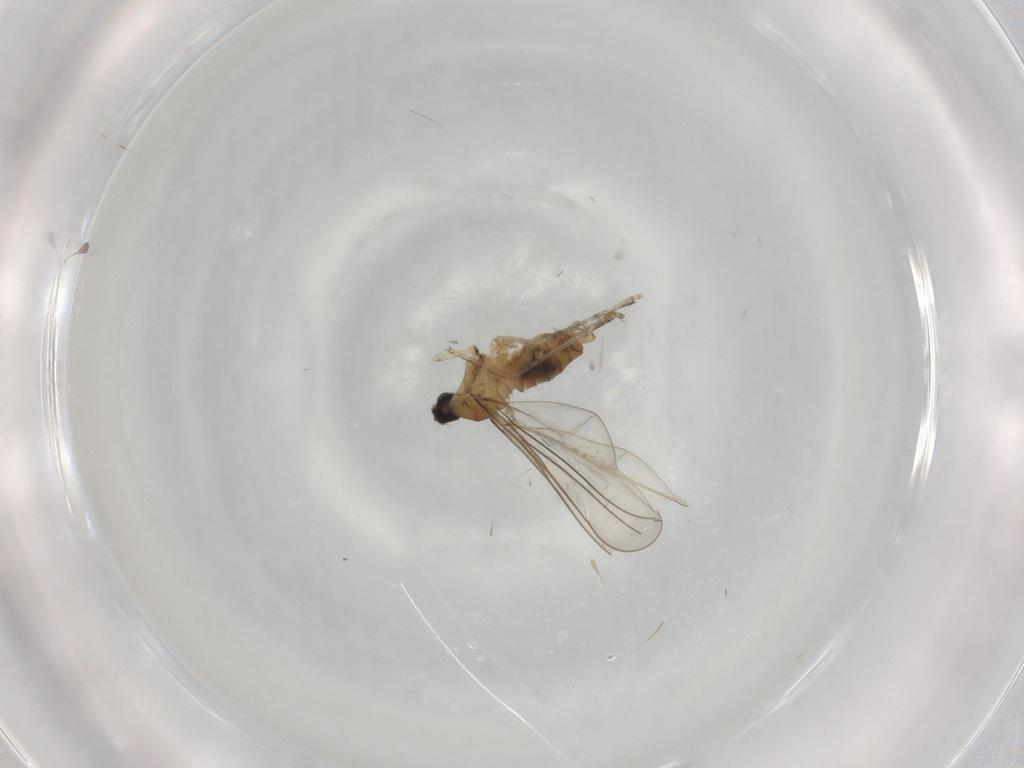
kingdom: Animalia
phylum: Arthropoda
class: Insecta
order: Diptera
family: Cecidomyiidae
